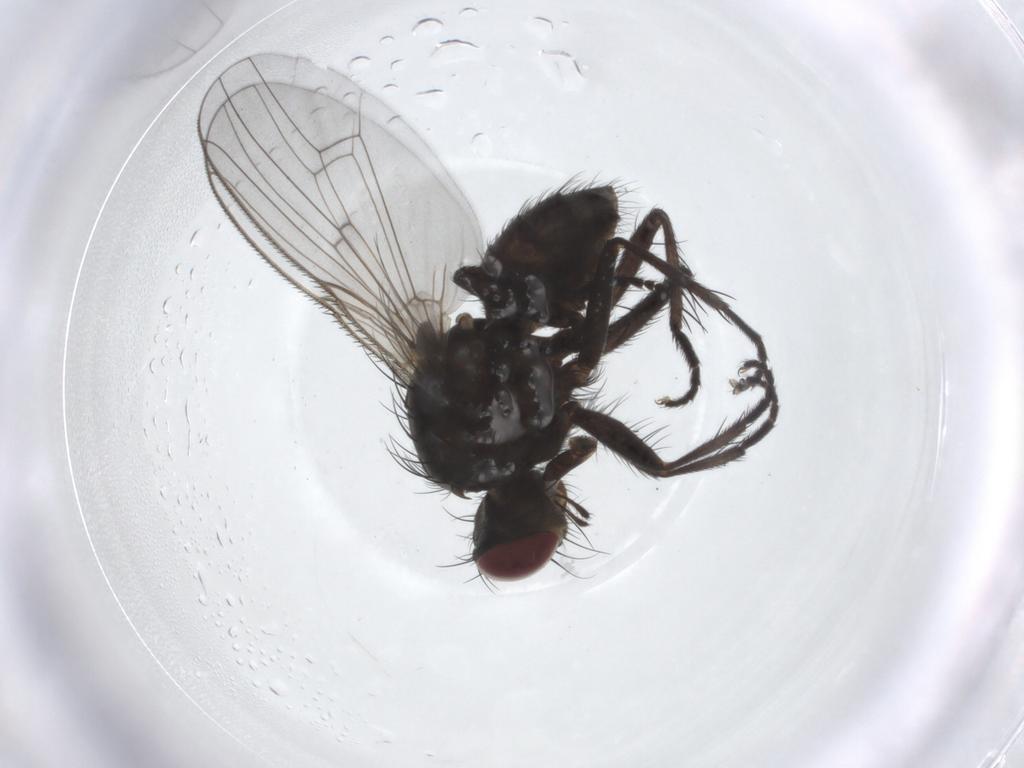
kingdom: Animalia
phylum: Arthropoda
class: Insecta
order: Diptera
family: Muscidae
